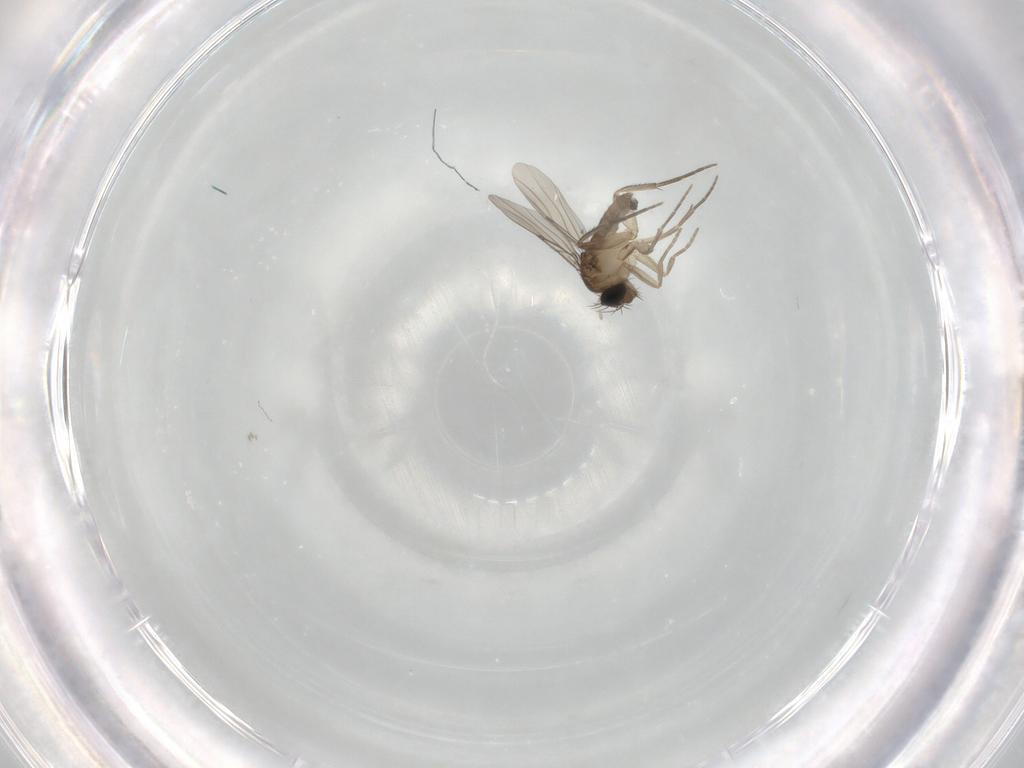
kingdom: Animalia
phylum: Arthropoda
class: Insecta
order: Diptera
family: Phoridae
